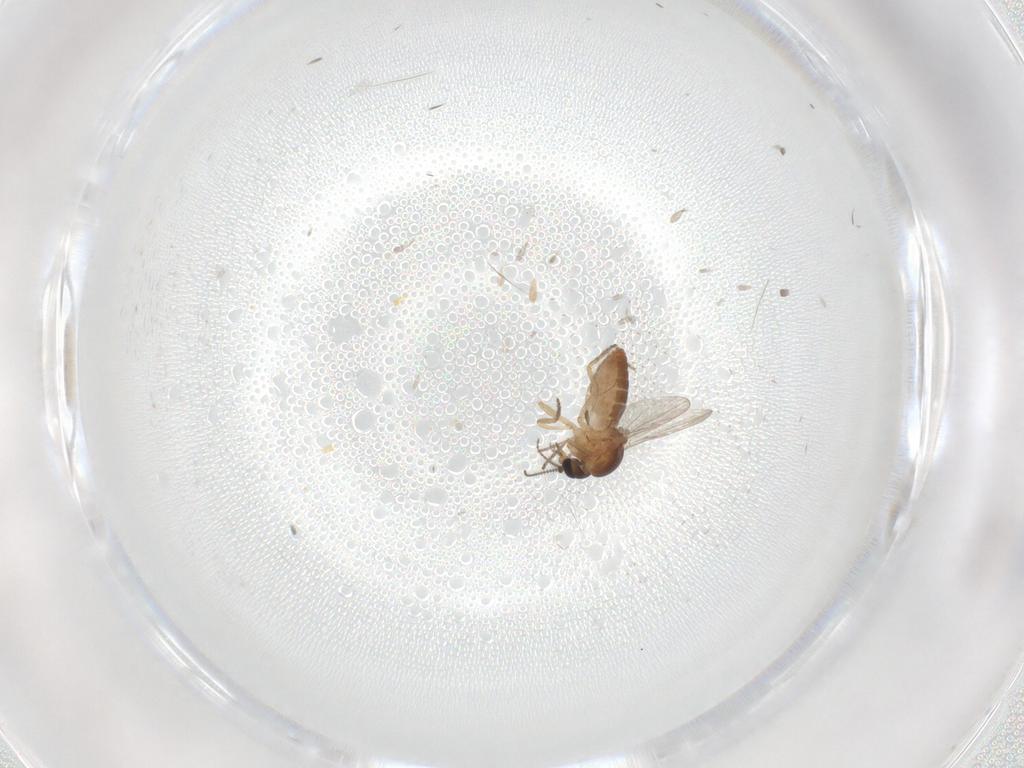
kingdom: Animalia
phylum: Arthropoda
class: Insecta
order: Diptera
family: Ceratopogonidae
